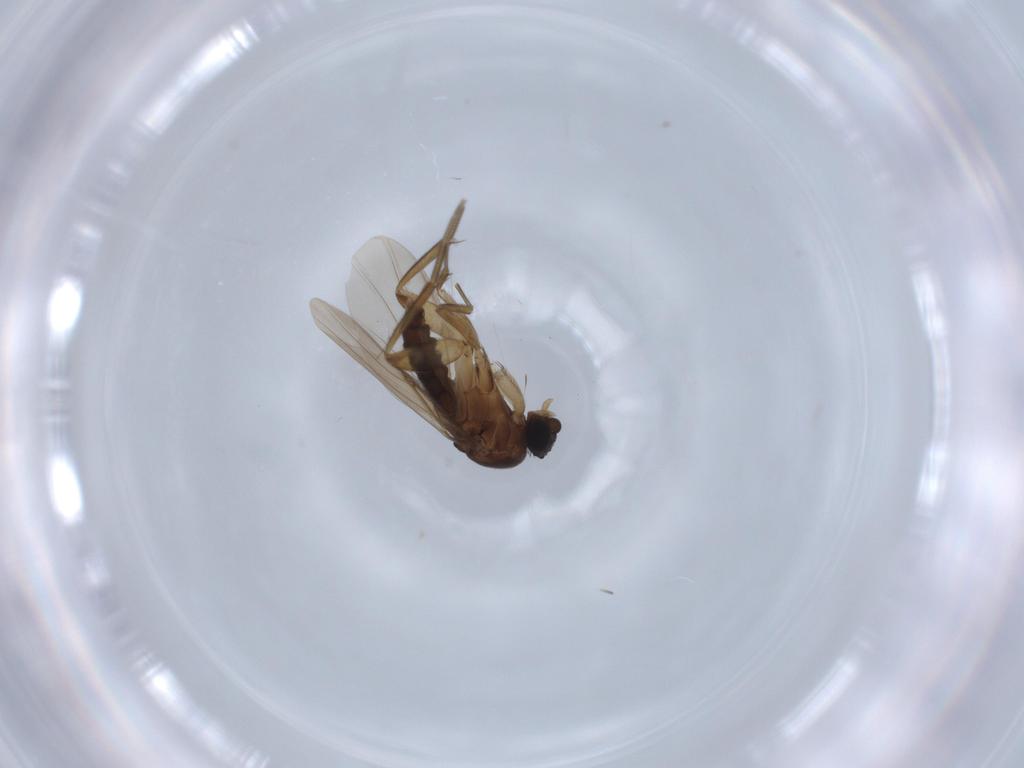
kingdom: Animalia
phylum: Arthropoda
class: Insecta
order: Diptera
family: Phoridae
